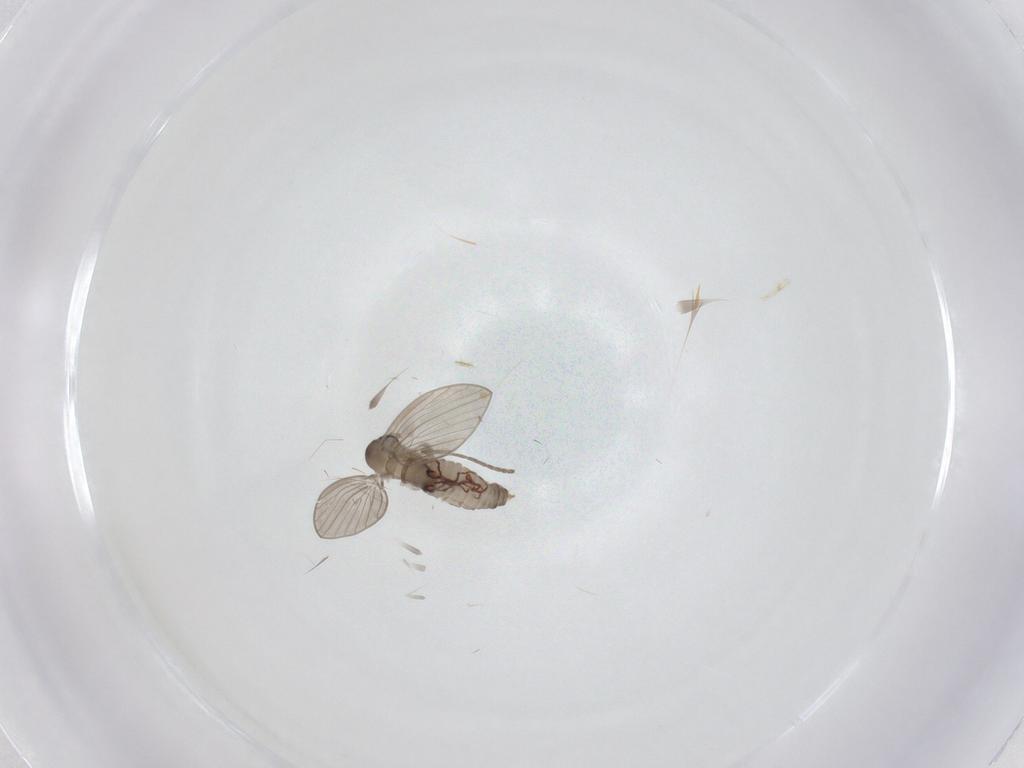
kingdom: Animalia
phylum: Arthropoda
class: Insecta
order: Diptera
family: Psychodidae
